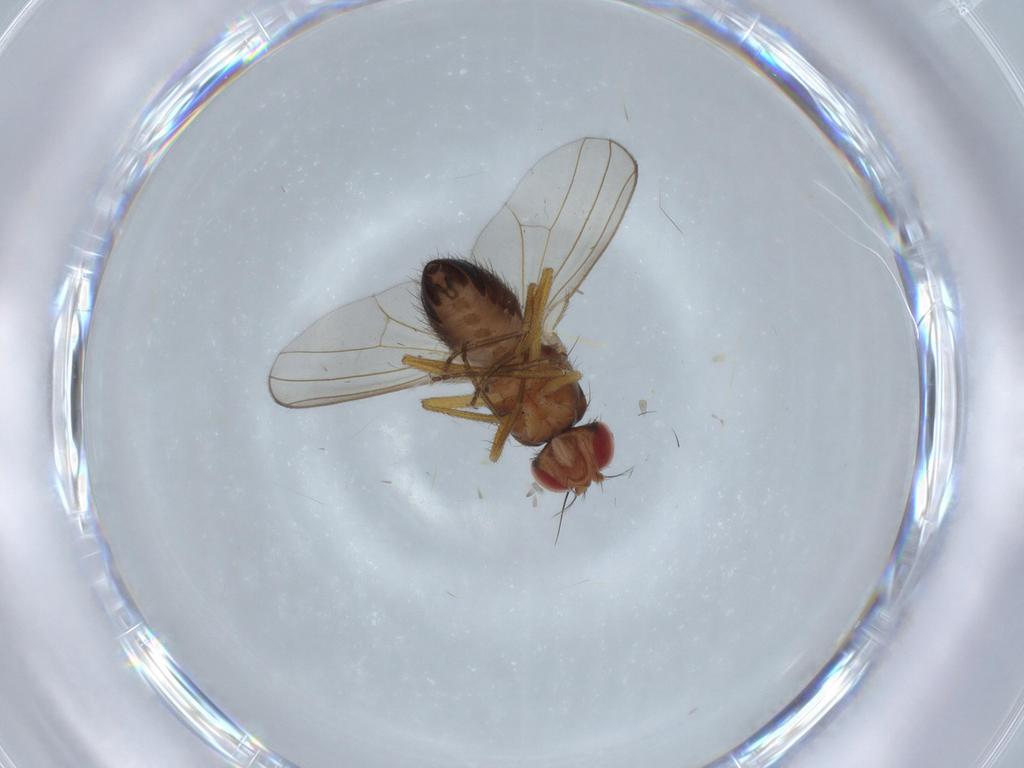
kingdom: Animalia
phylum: Arthropoda
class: Insecta
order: Diptera
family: Drosophilidae
